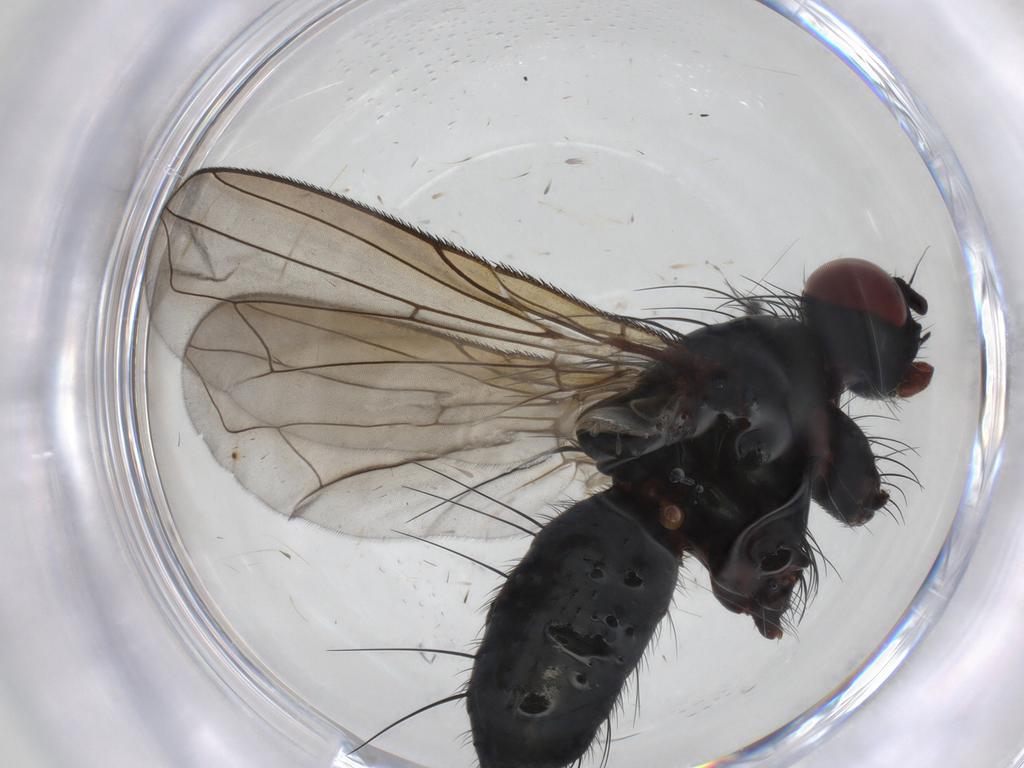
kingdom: Animalia
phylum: Arthropoda
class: Insecta
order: Diptera
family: Tachinidae
